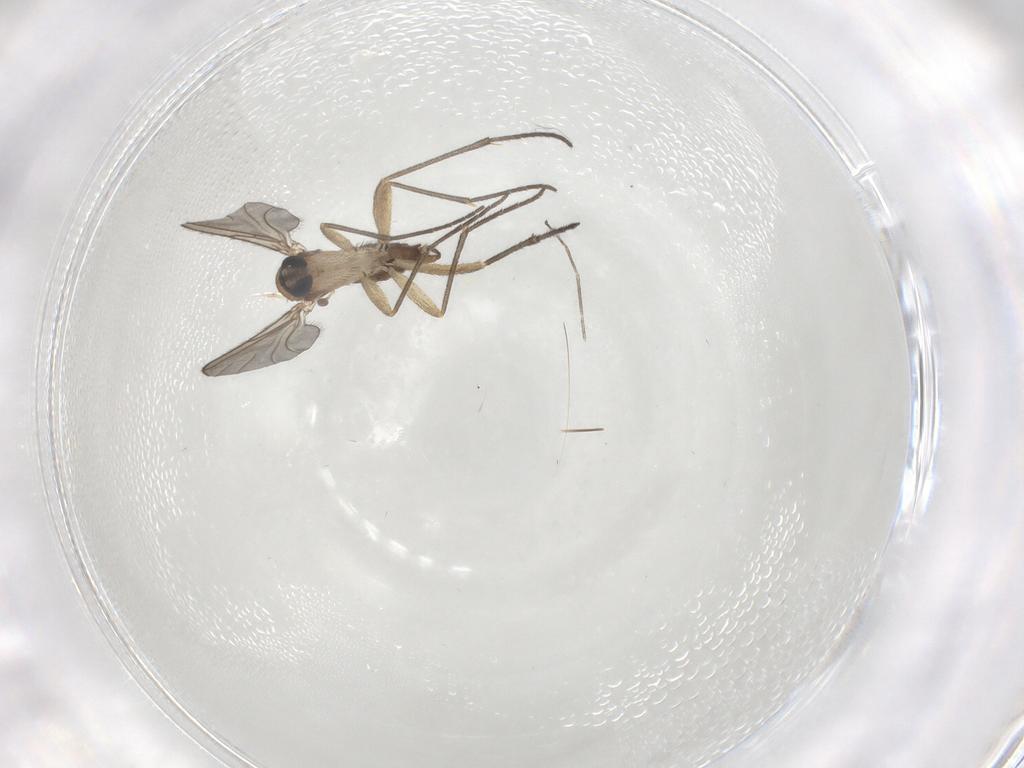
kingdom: Animalia
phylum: Arthropoda
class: Insecta
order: Diptera
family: Sciaridae
